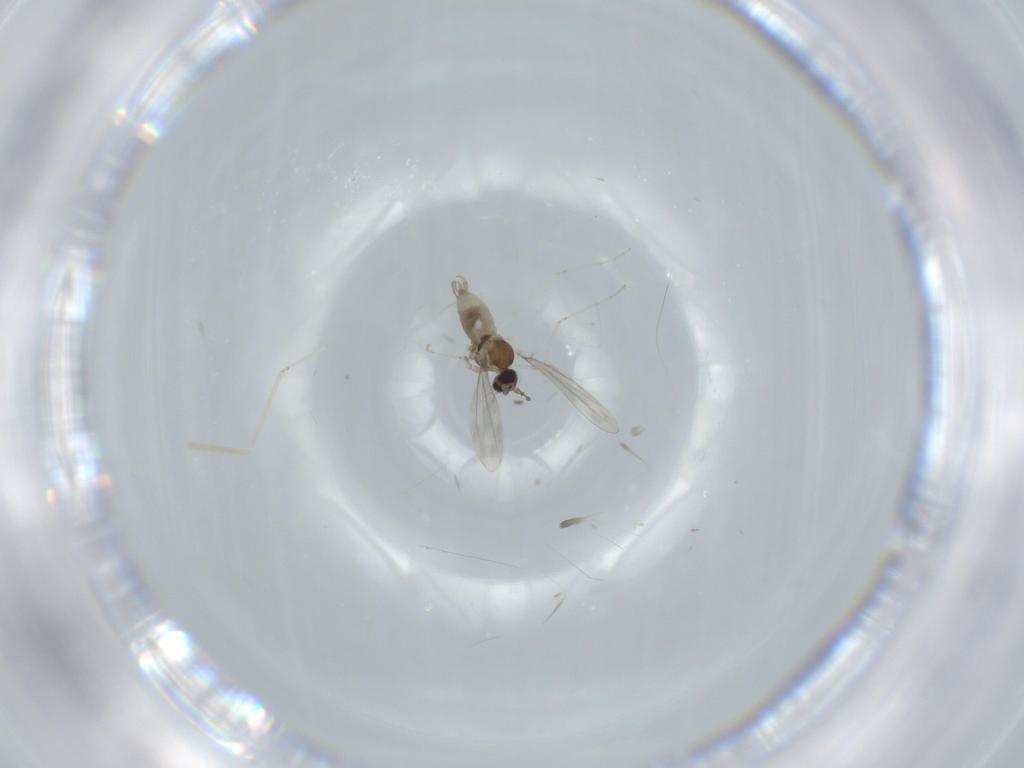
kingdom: Animalia
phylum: Arthropoda
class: Insecta
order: Diptera
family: Cecidomyiidae
